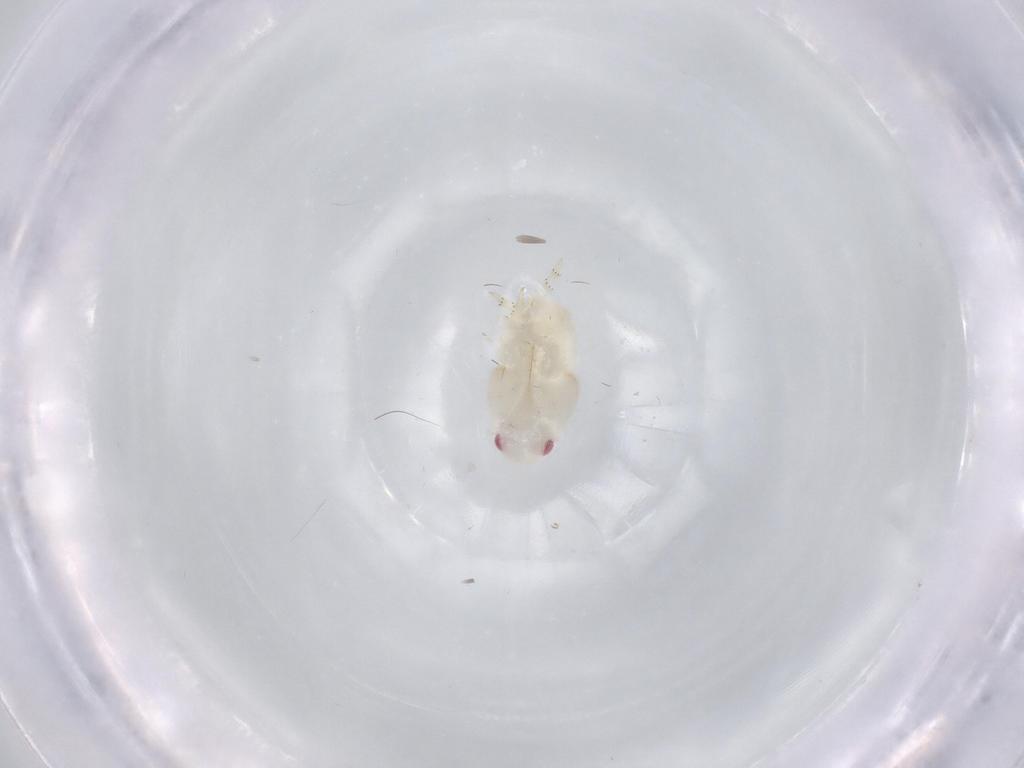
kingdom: Animalia
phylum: Arthropoda
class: Insecta
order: Hemiptera
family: Flatidae
